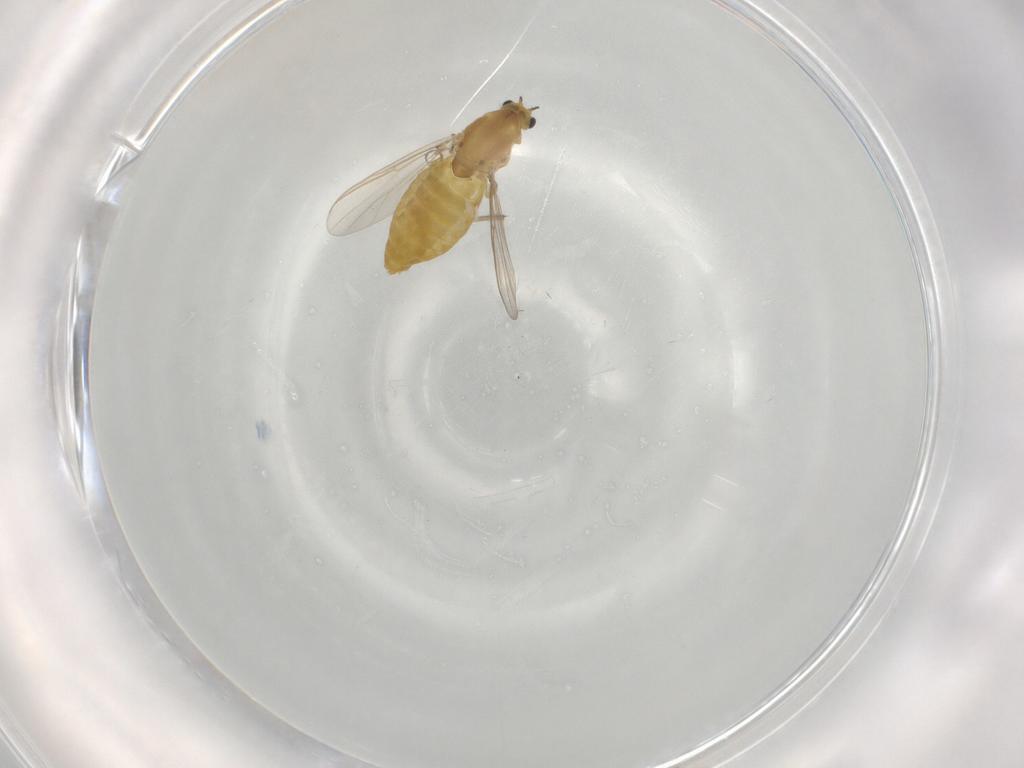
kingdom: Animalia
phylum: Arthropoda
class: Insecta
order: Diptera
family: Chironomidae
